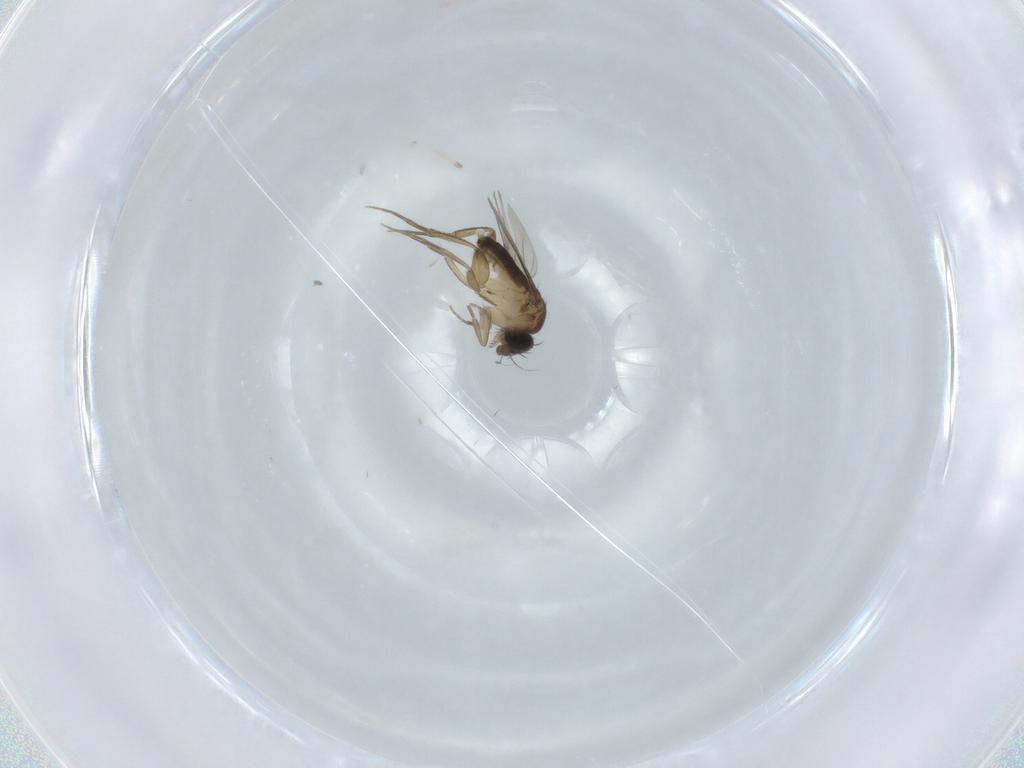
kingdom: Animalia
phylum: Arthropoda
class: Insecta
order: Diptera
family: Phoridae
